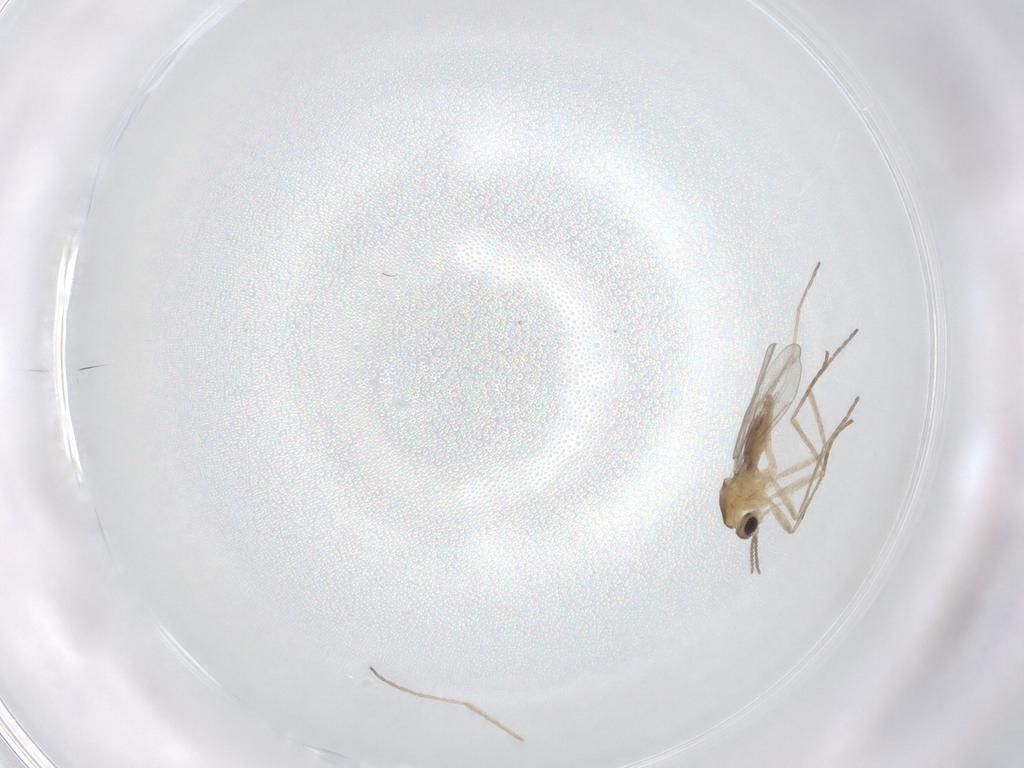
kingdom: Animalia
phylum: Arthropoda
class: Insecta
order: Diptera
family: Cecidomyiidae
